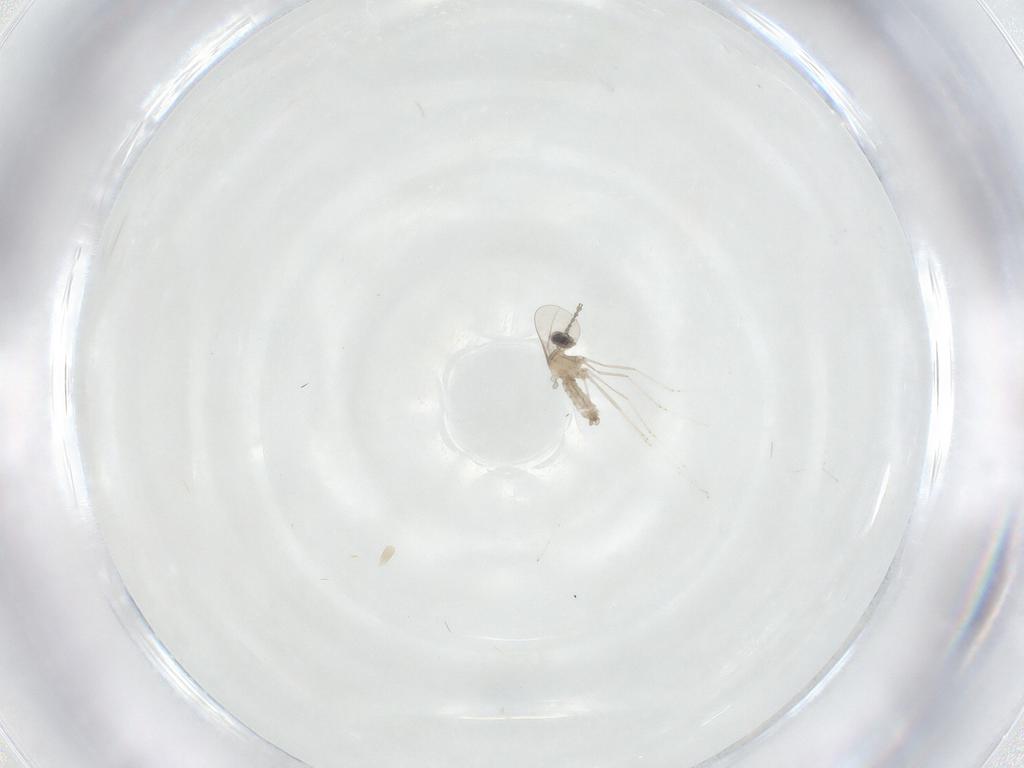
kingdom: Animalia
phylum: Arthropoda
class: Insecta
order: Diptera
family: Cecidomyiidae
